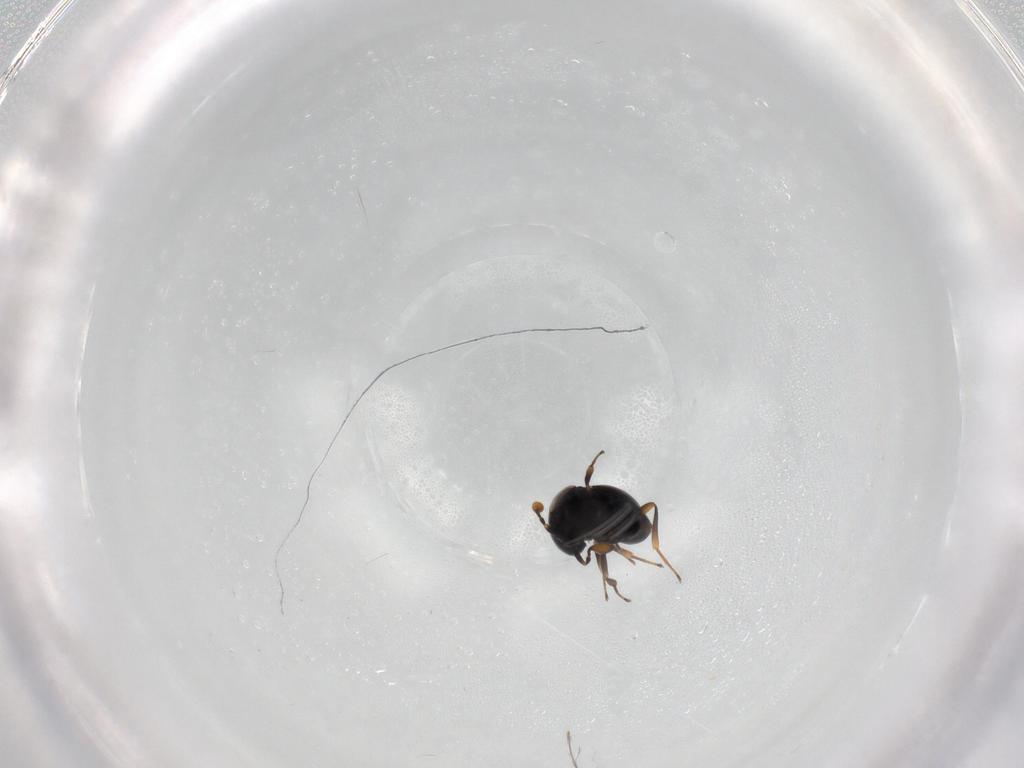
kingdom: Animalia
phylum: Arthropoda
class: Insecta
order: Hymenoptera
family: Scelionidae
